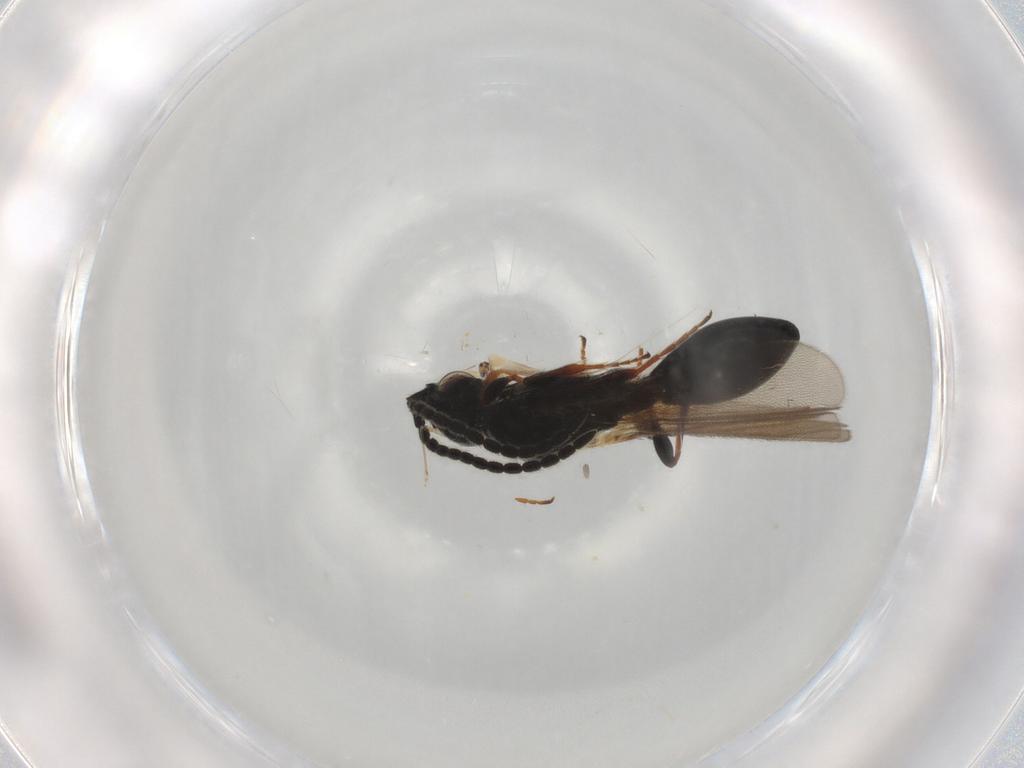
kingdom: Animalia
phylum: Arthropoda
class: Insecta
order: Hymenoptera
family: Diapriidae
